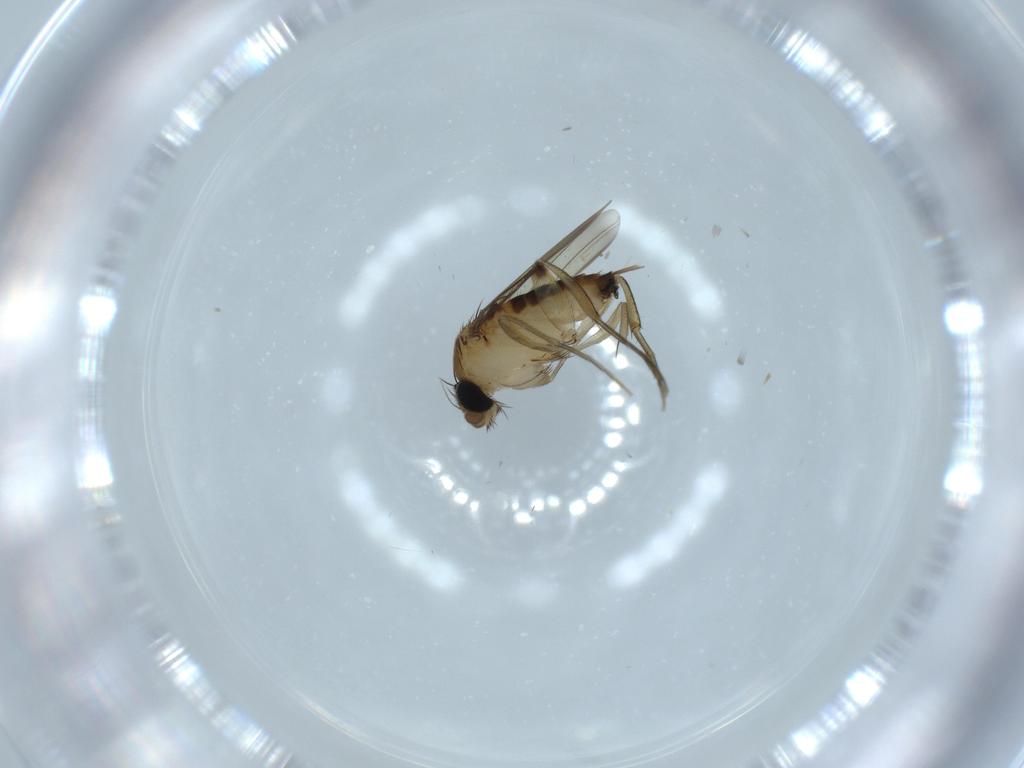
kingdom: Animalia
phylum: Arthropoda
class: Insecta
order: Diptera
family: Phoridae
